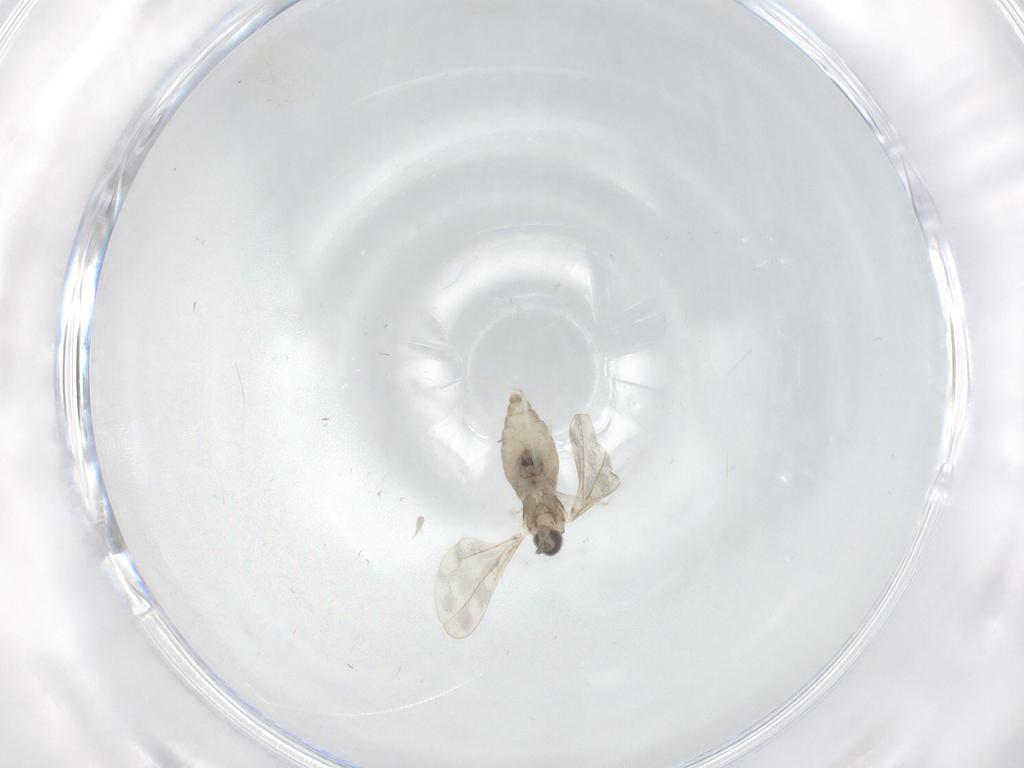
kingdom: Animalia
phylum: Arthropoda
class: Insecta
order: Diptera
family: Cecidomyiidae
